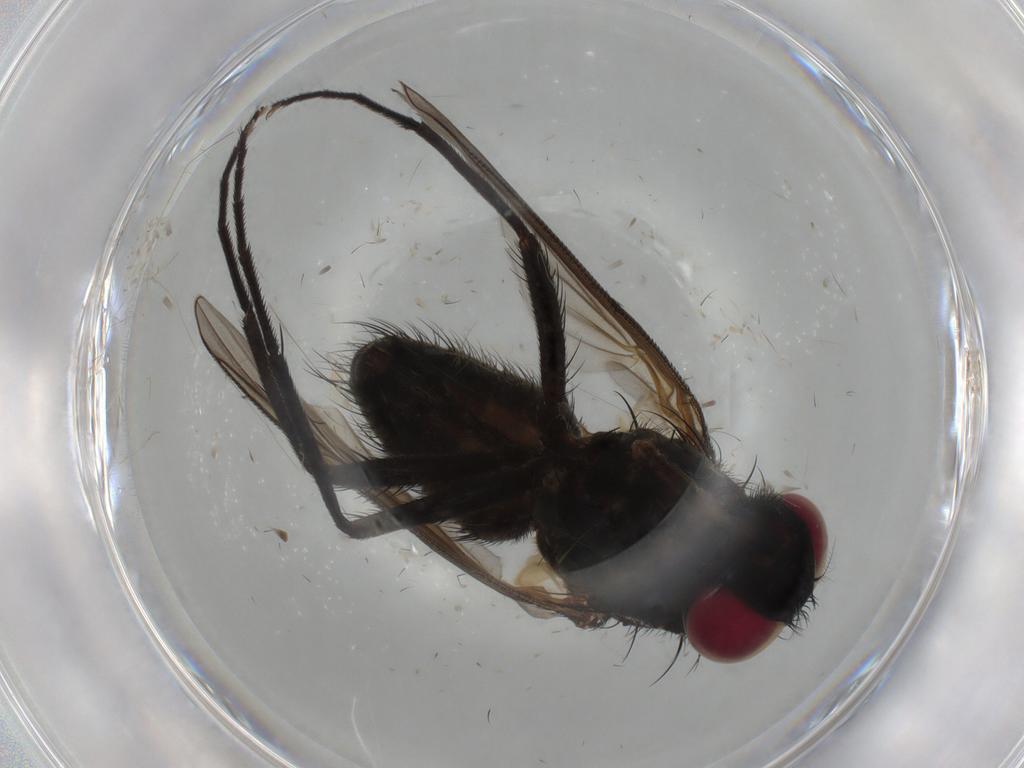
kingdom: Animalia
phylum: Arthropoda
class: Insecta
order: Diptera
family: Muscidae
